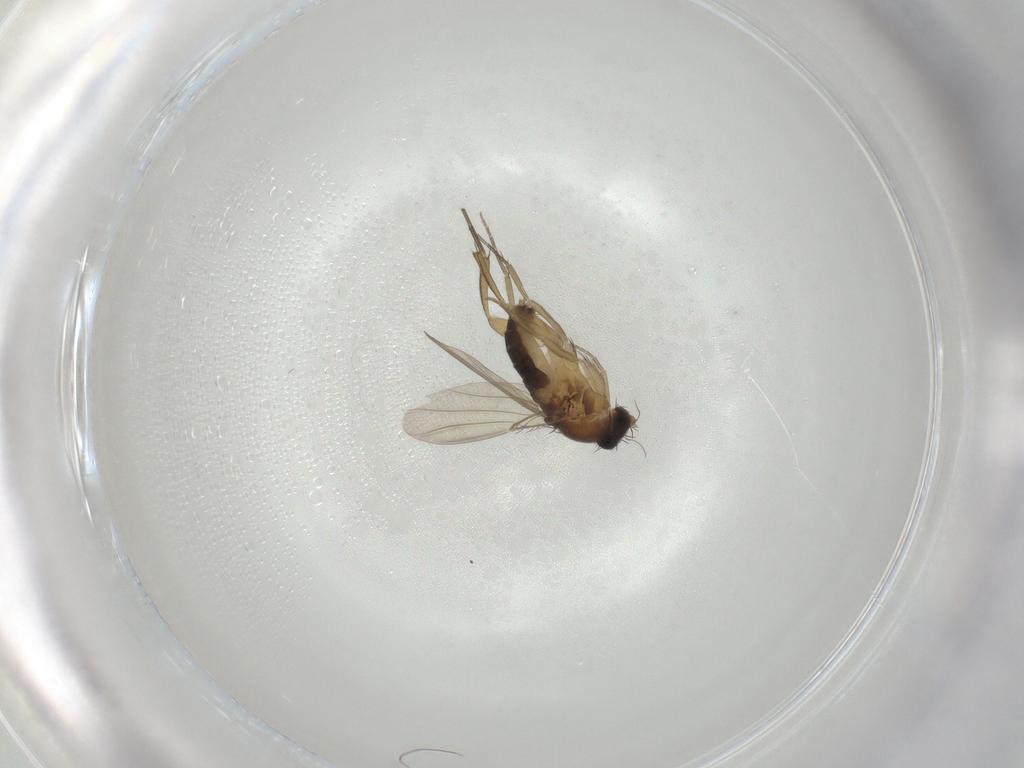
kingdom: Animalia
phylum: Arthropoda
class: Insecta
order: Diptera
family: Phoridae
